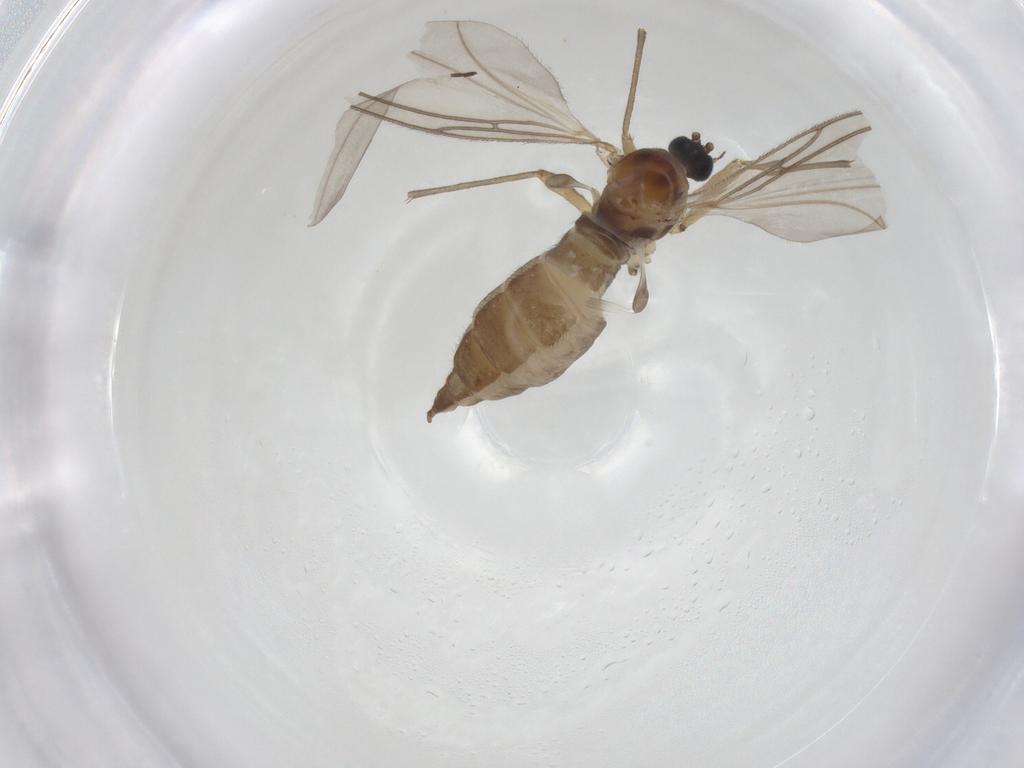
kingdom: Animalia
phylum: Arthropoda
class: Insecta
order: Diptera
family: Sciaridae
